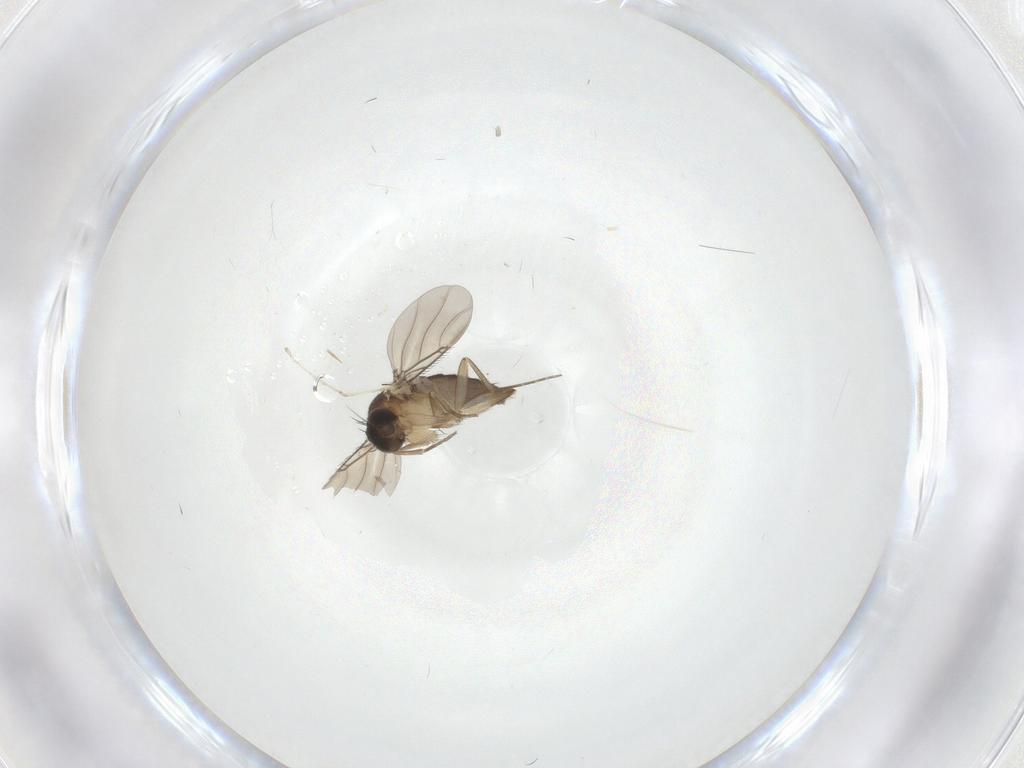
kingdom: Animalia
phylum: Arthropoda
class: Insecta
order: Diptera
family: Phoridae
